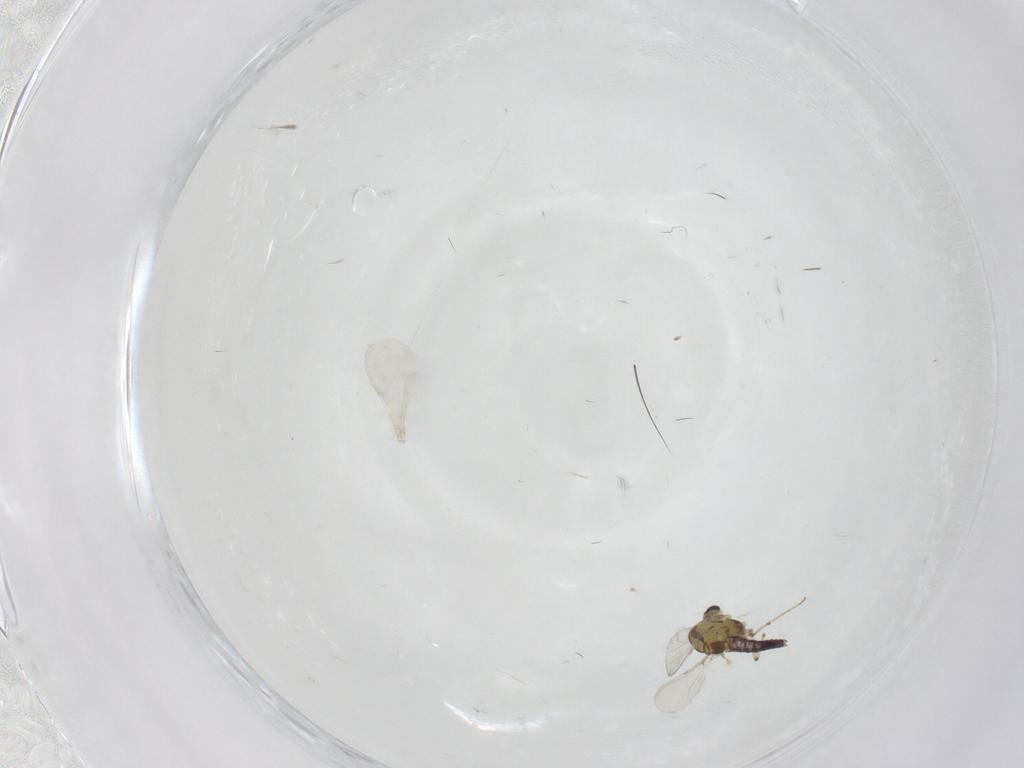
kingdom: Animalia
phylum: Arthropoda
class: Insecta
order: Diptera
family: Chironomidae
